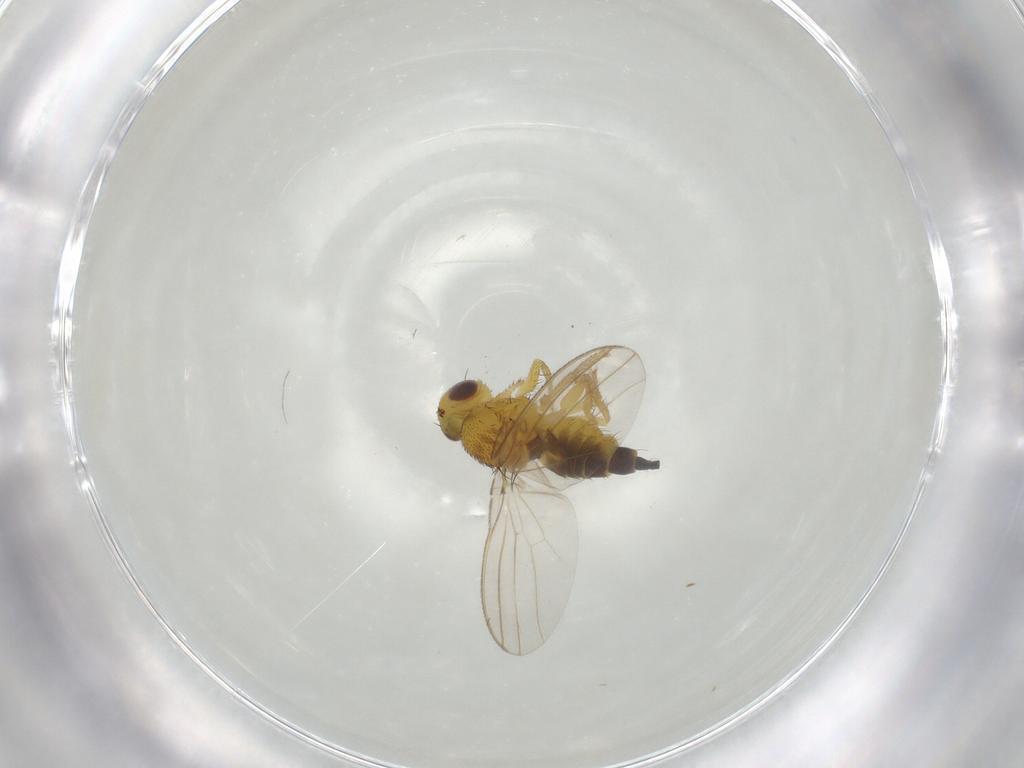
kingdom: Animalia
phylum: Arthropoda
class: Insecta
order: Diptera
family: Fergusoninidae
